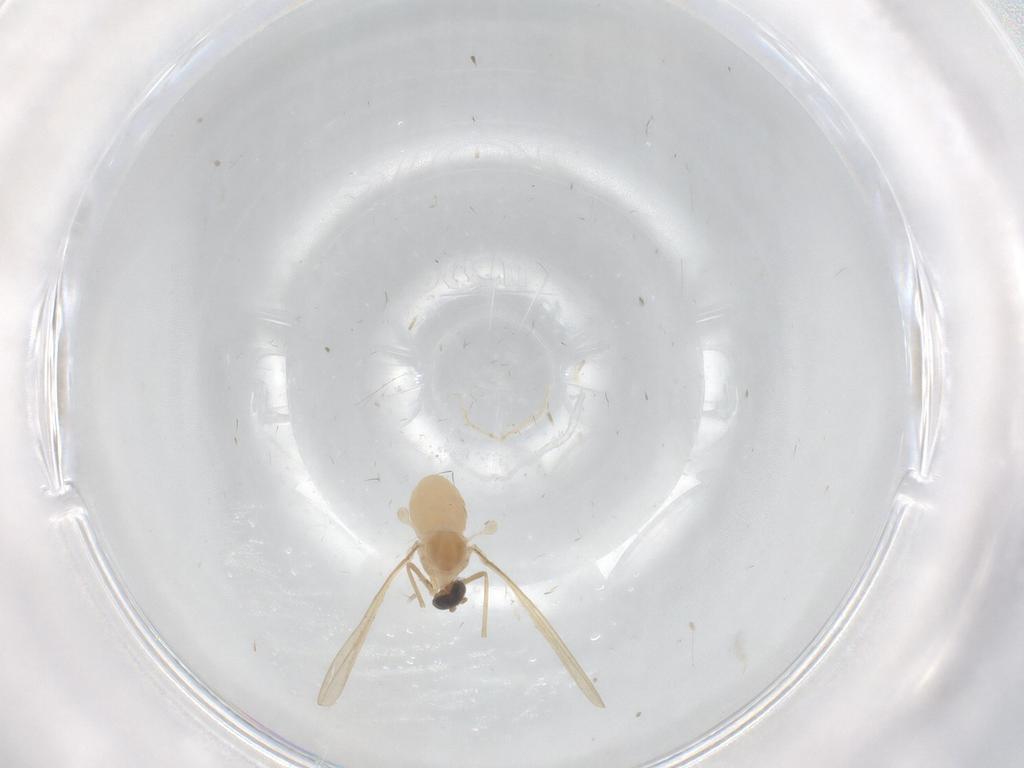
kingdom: Animalia
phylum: Arthropoda
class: Insecta
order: Diptera
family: Cecidomyiidae
